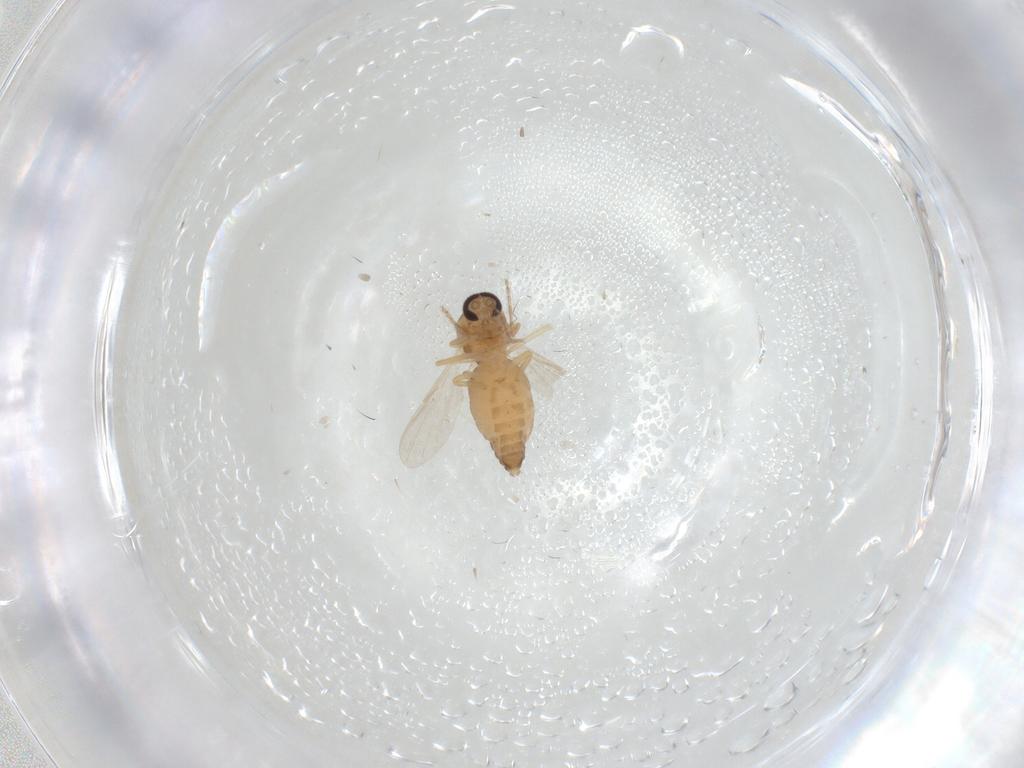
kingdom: Animalia
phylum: Arthropoda
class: Insecta
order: Diptera
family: Ceratopogonidae
